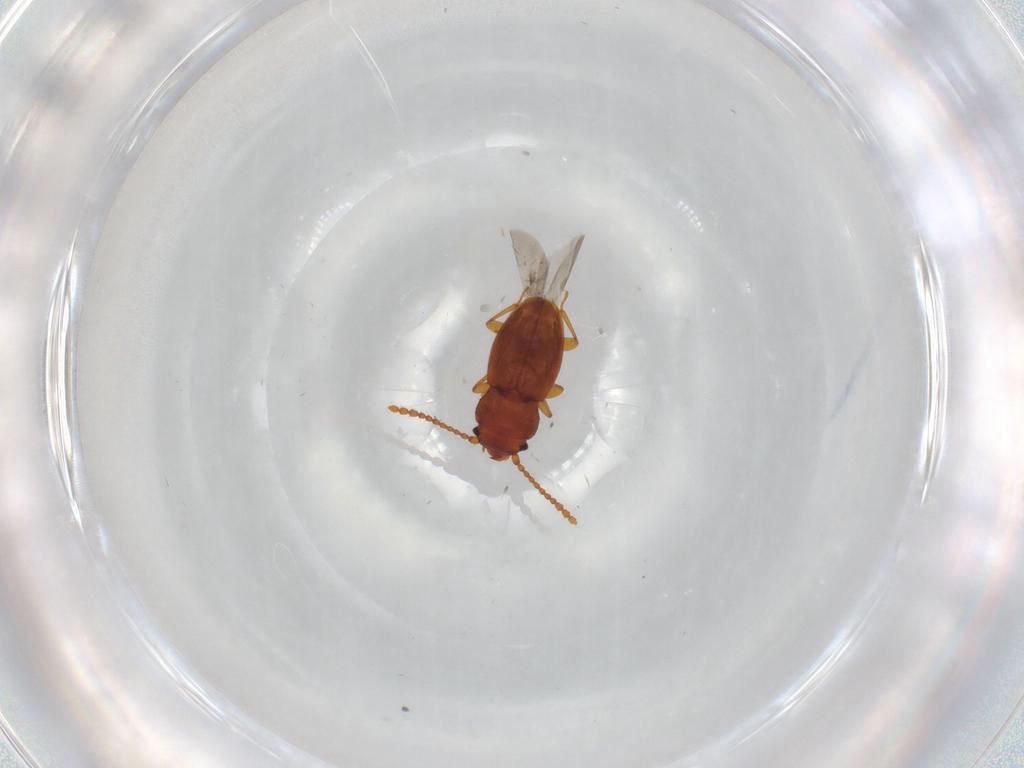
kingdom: Animalia
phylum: Arthropoda
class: Insecta
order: Coleoptera
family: Laemophloeidae
